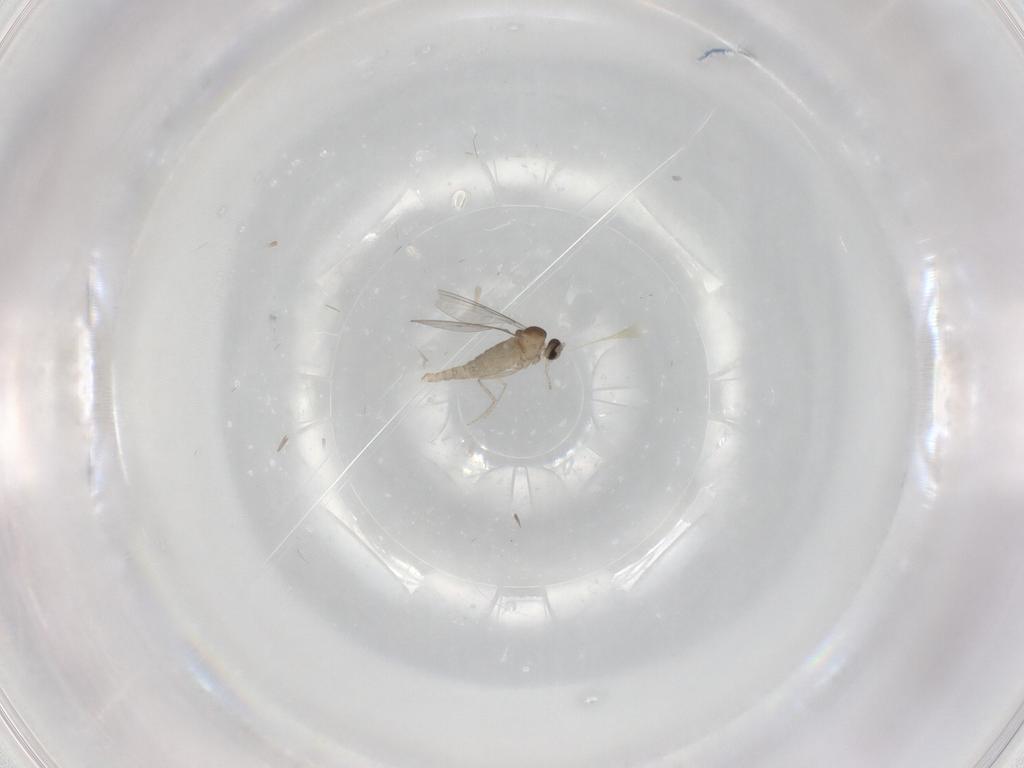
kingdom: Animalia
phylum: Arthropoda
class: Insecta
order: Diptera
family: Cecidomyiidae
